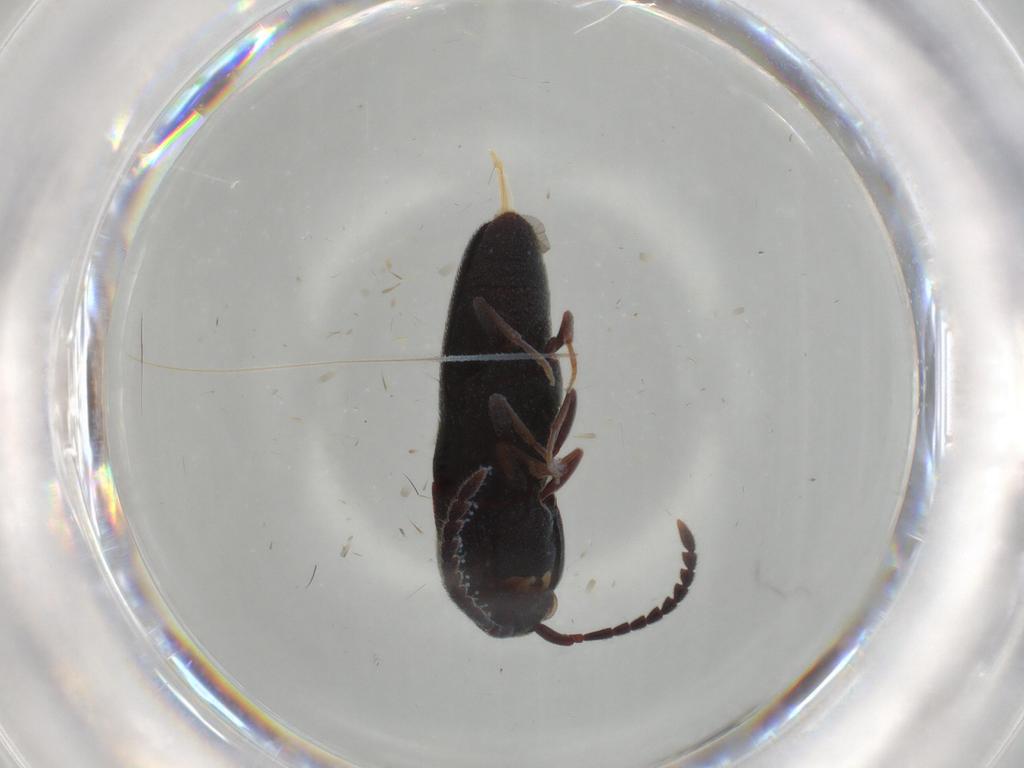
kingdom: Animalia
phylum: Arthropoda
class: Insecta
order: Coleoptera
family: Eucnemidae
